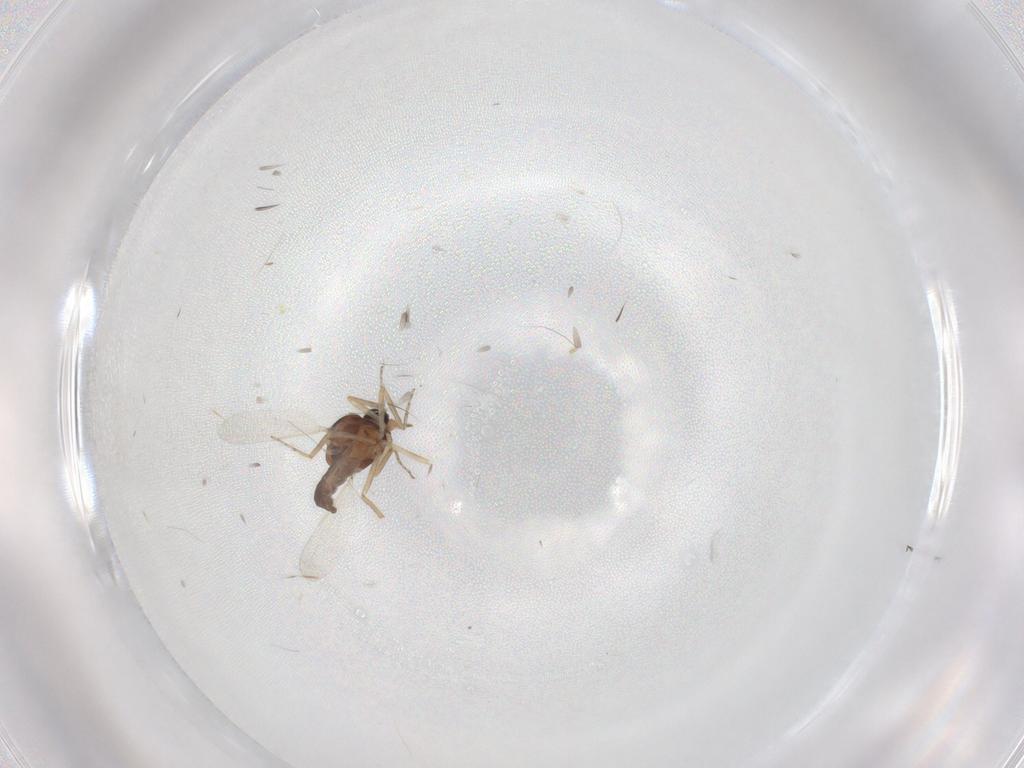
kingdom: Animalia
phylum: Arthropoda
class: Insecta
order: Diptera
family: Ceratopogonidae
